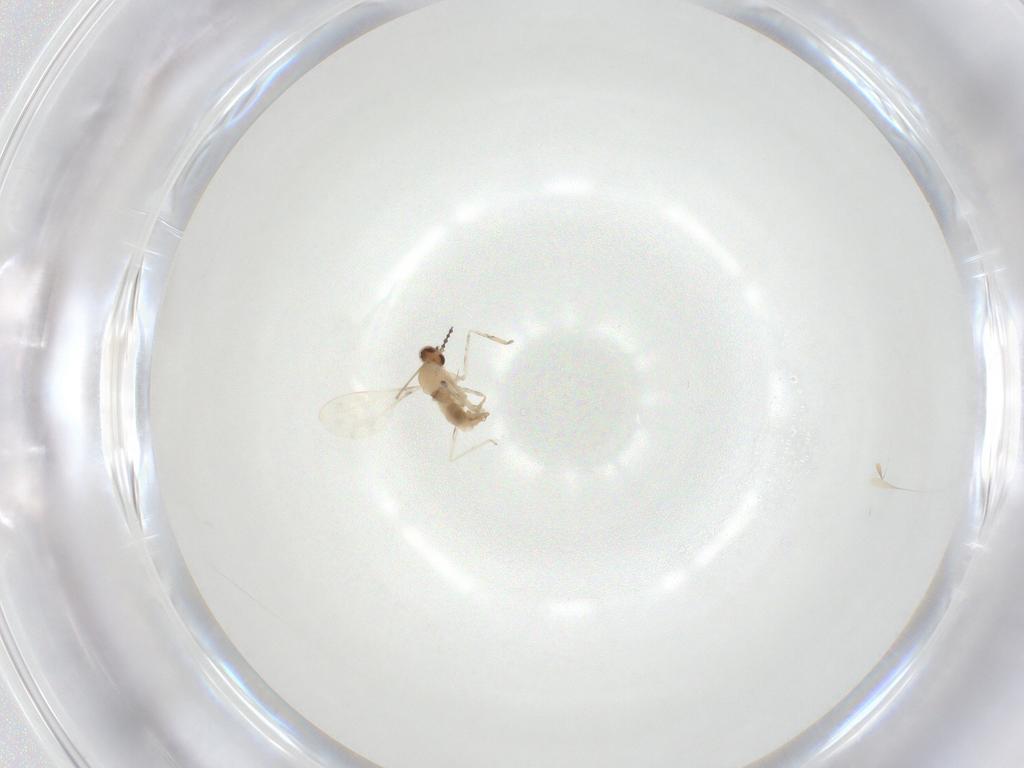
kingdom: Animalia
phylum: Arthropoda
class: Insecta
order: Diptera
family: Cecidomyiidae
